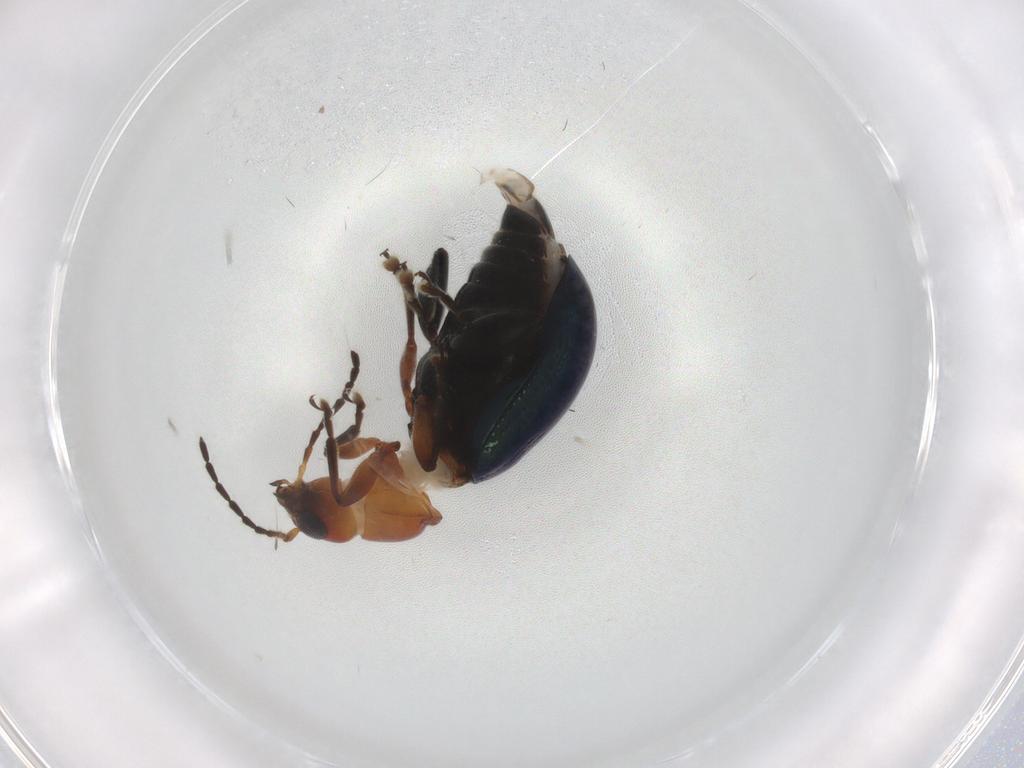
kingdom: Animalia
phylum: Arthropoda
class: Insecta
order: Coleoptera
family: Chrysomelidae
